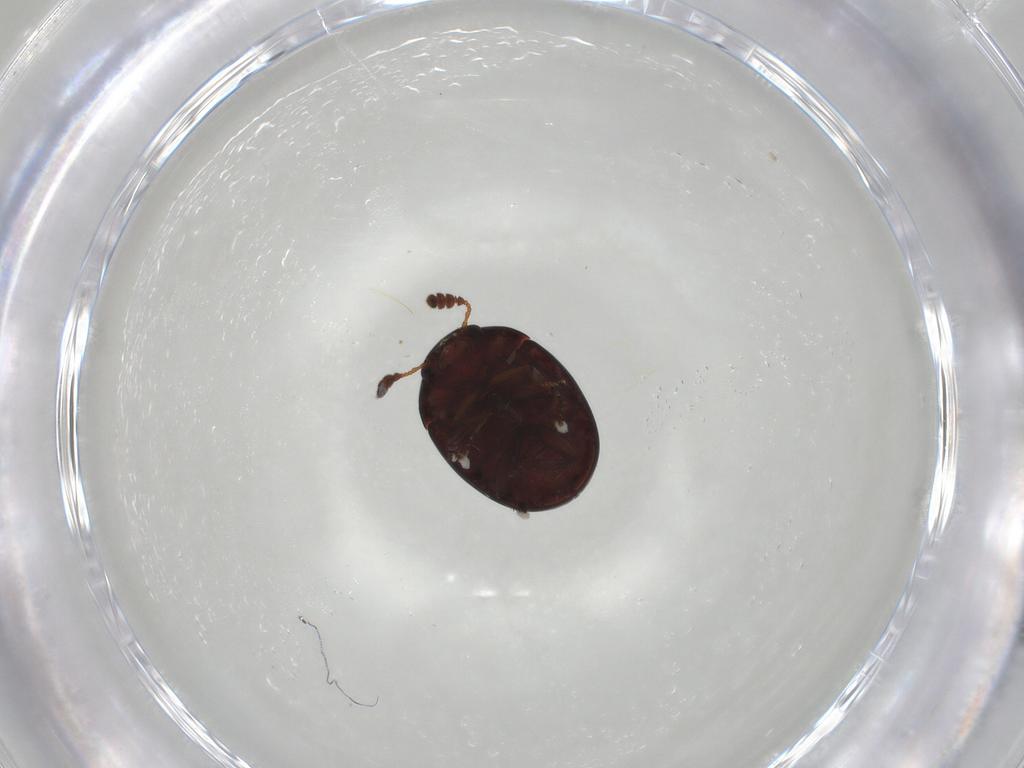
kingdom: Animalia
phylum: Arthropoda
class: Insecta
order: Coleoptera
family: Leiodidae
